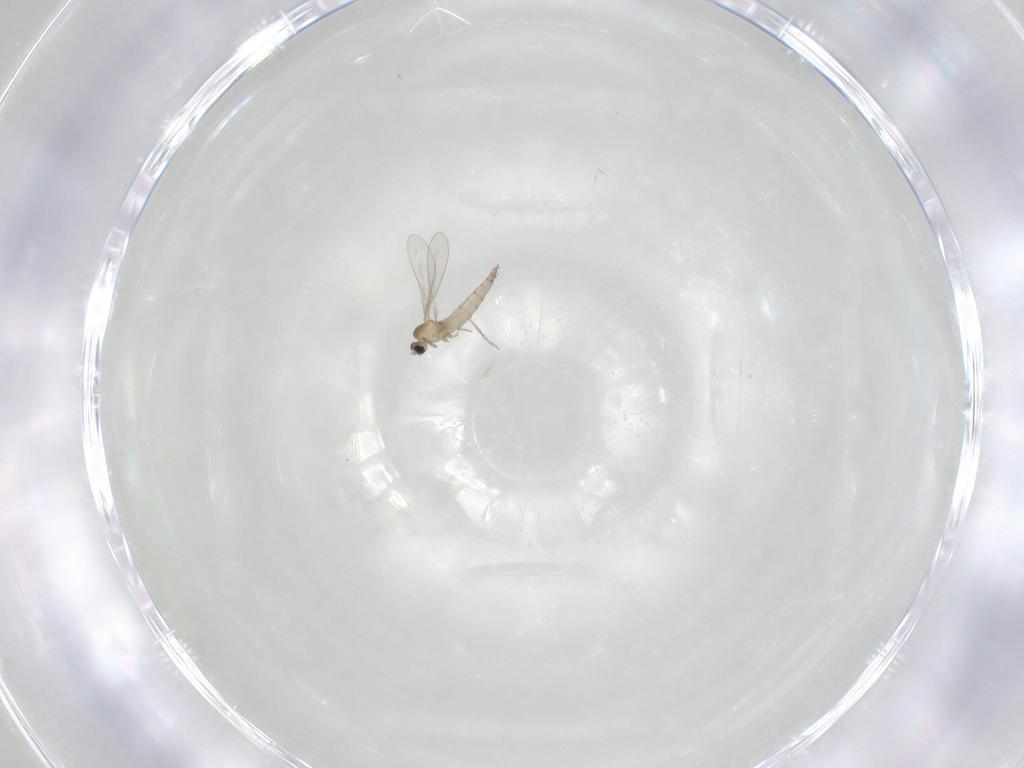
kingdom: Animalia
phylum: Arthropoda
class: Insecta
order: Diptera
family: Cecidomyiidae
